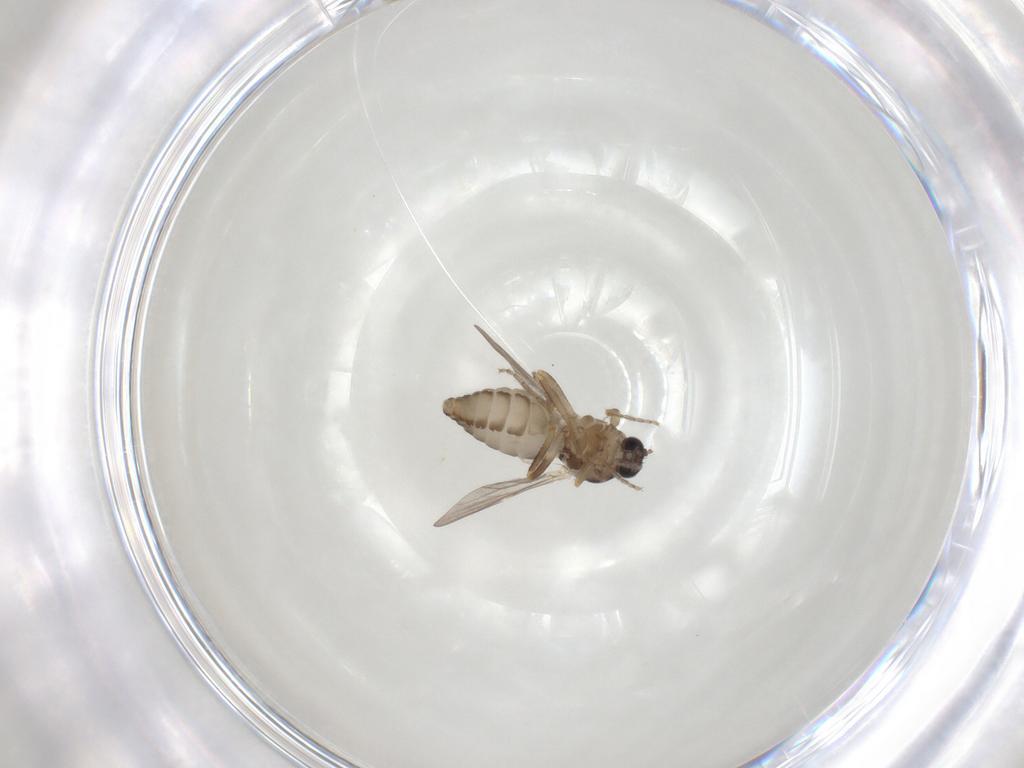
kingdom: Animalia
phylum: Arthropoda
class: Insecta
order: Diptera
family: Ceratopogonidae
